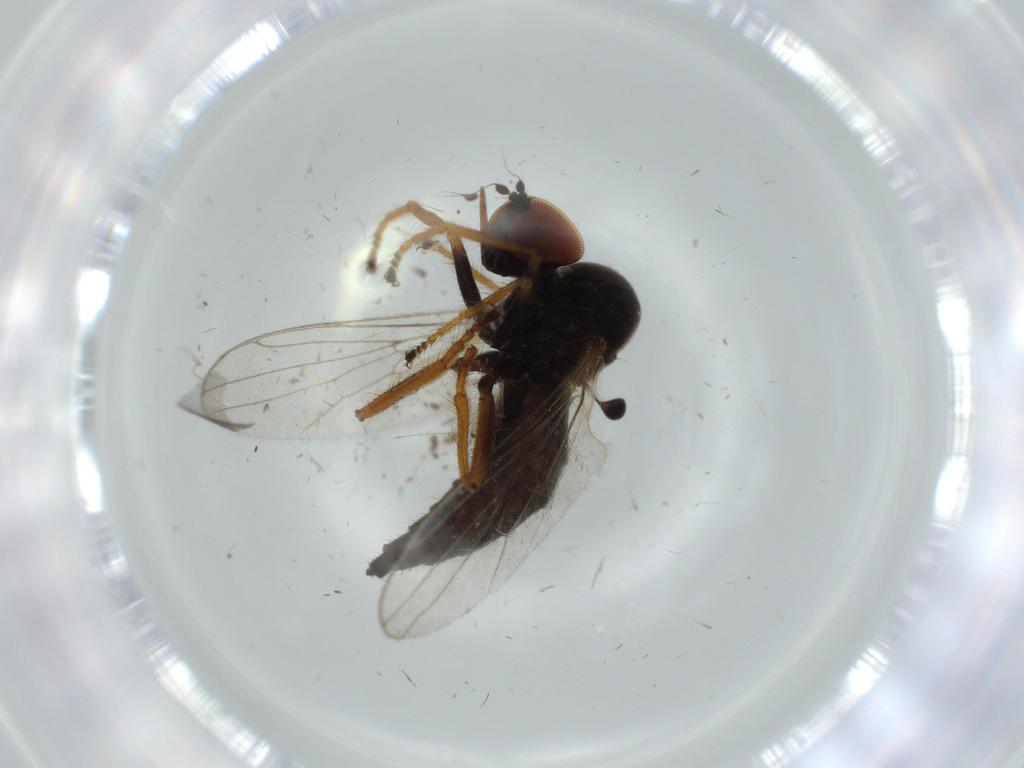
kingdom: Animalia
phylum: Arthropoda
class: Insecta
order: Diptera
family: Cecidomyiidae
